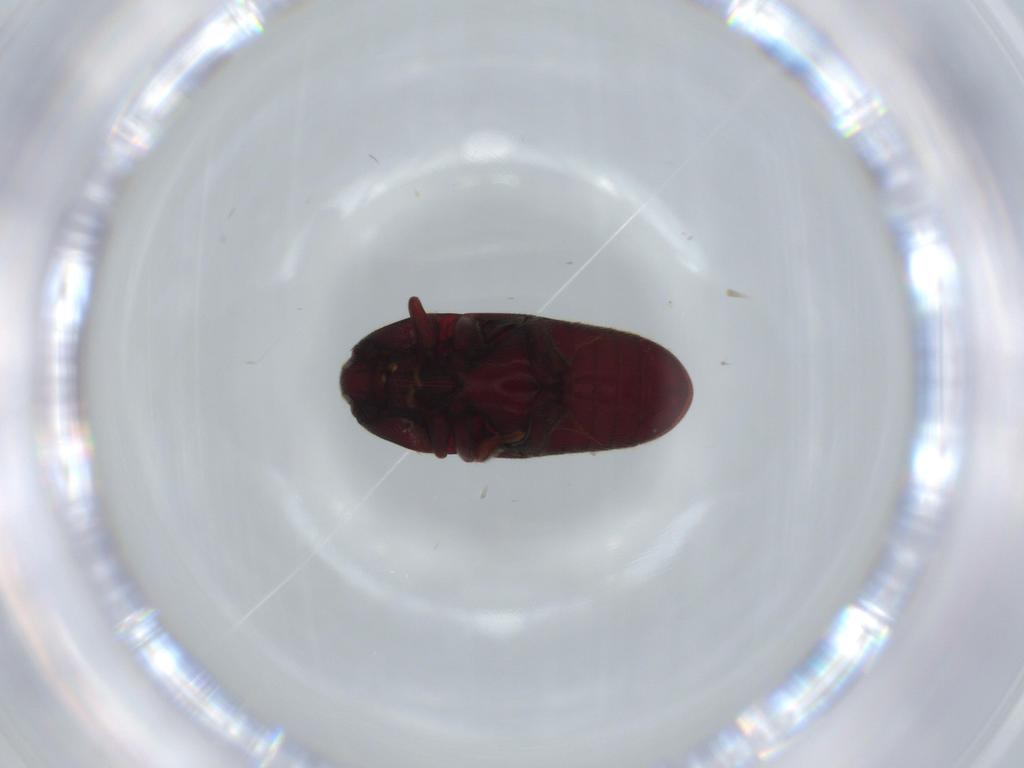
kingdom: Animalia
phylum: Arthropoda
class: Insecta
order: Coleoptera
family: Throscidae
